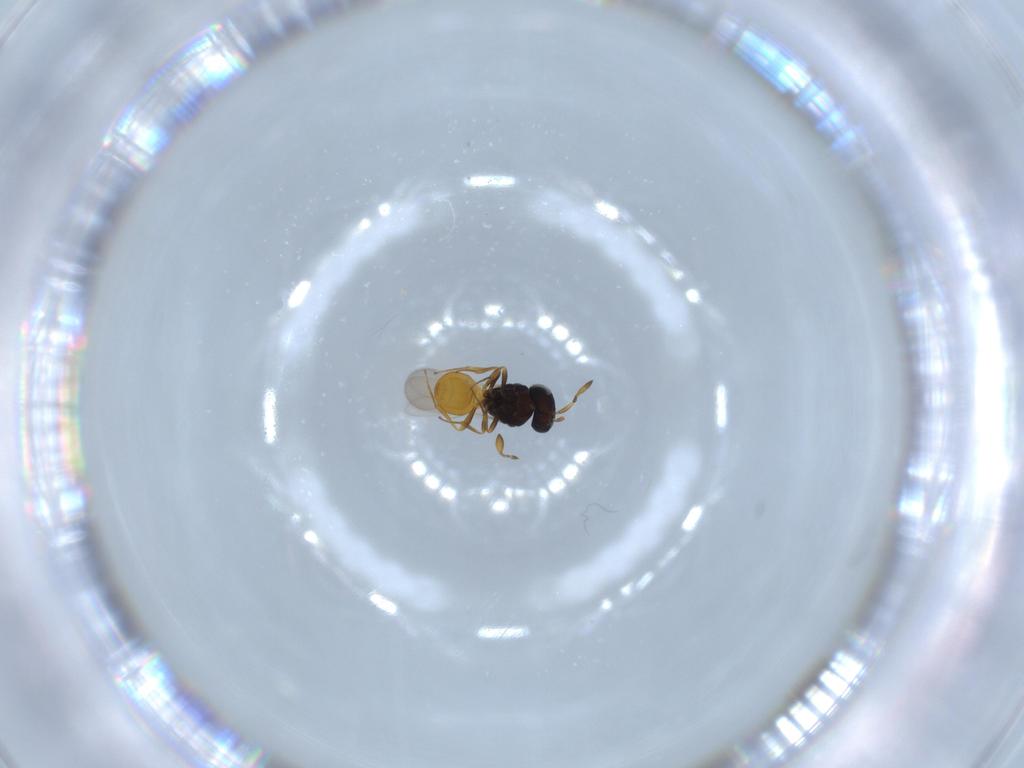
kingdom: Animalia
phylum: Arthropoda
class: Insecta
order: Hymenoptera
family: Scelionidae
